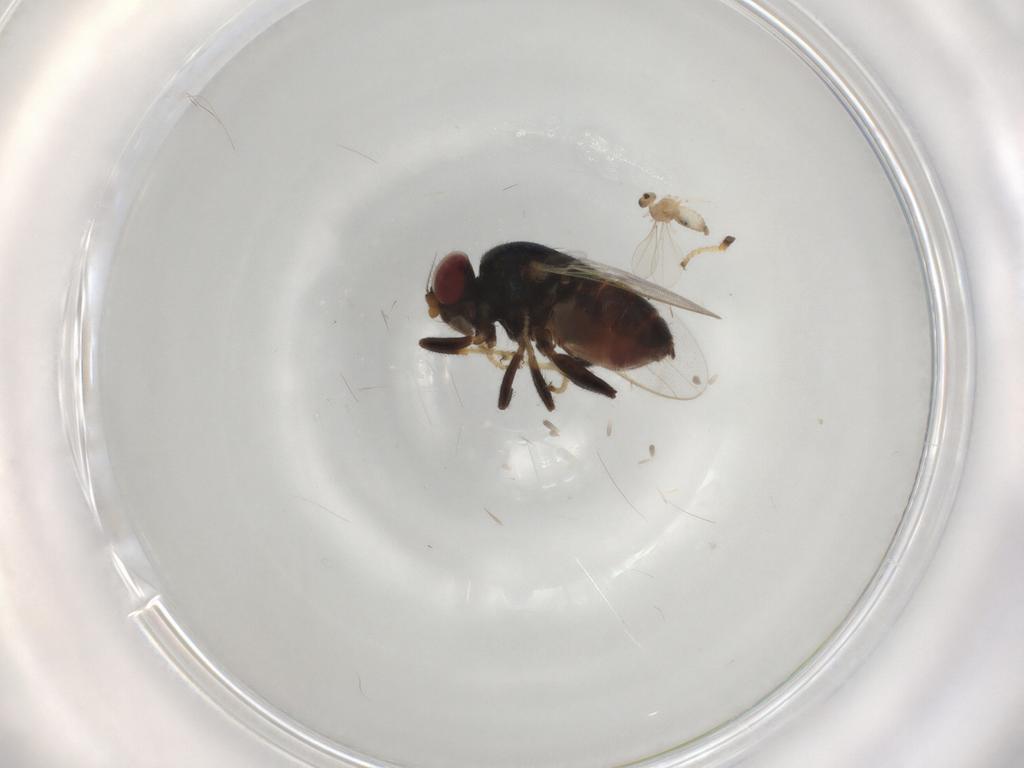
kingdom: Animalia
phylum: Arthropoda
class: Insecta
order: Diptera
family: Chloropidae
